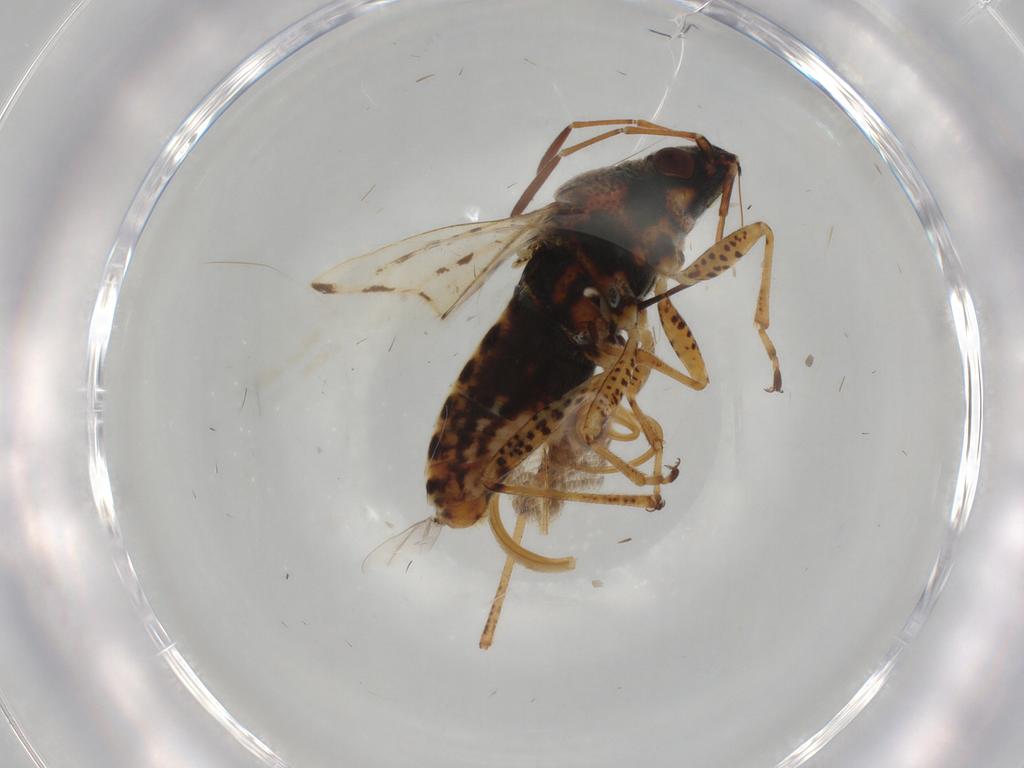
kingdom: Animalia
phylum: Arthropoda
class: Insecta
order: Hemiptera
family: Lygaeidae
